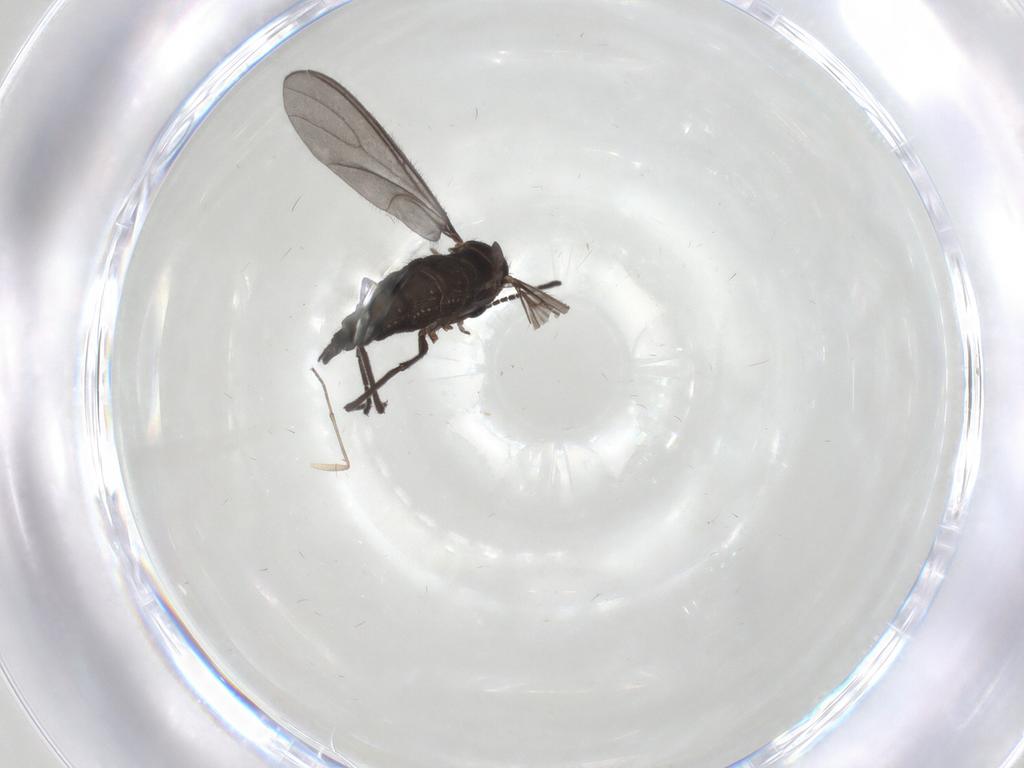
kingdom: Animalia
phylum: Arthropoda
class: Insecta
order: Diptera
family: Sciaridae
